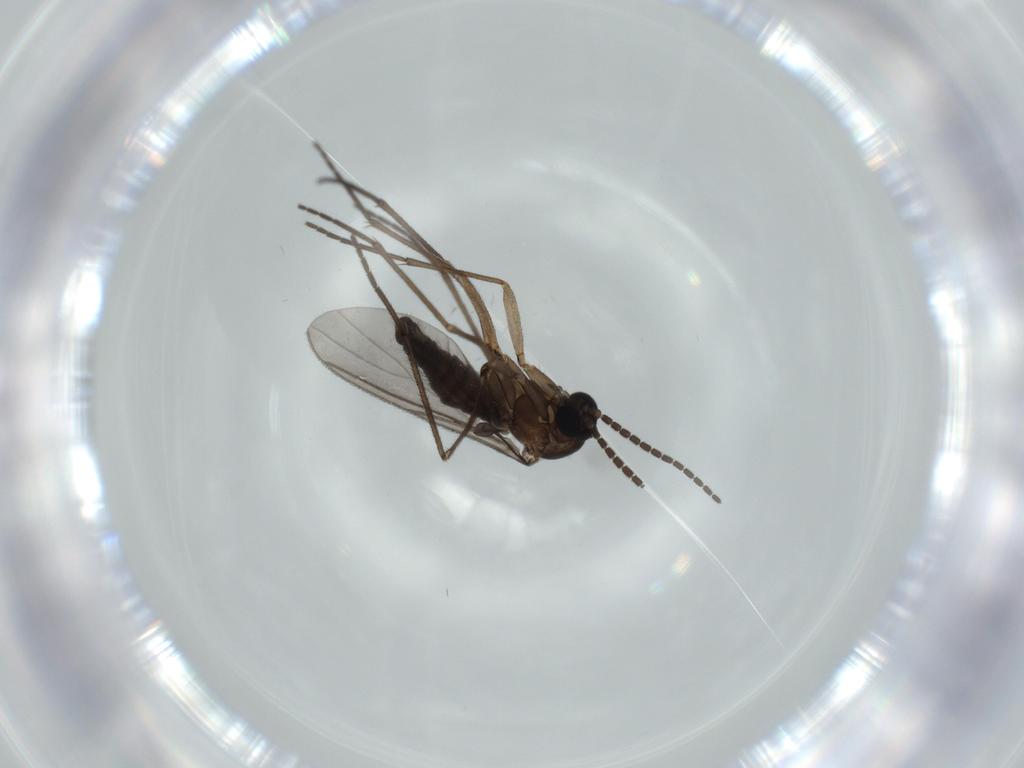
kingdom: Animalia
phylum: Arthropoda
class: Insecta
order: Diptera
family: Sciaridae
